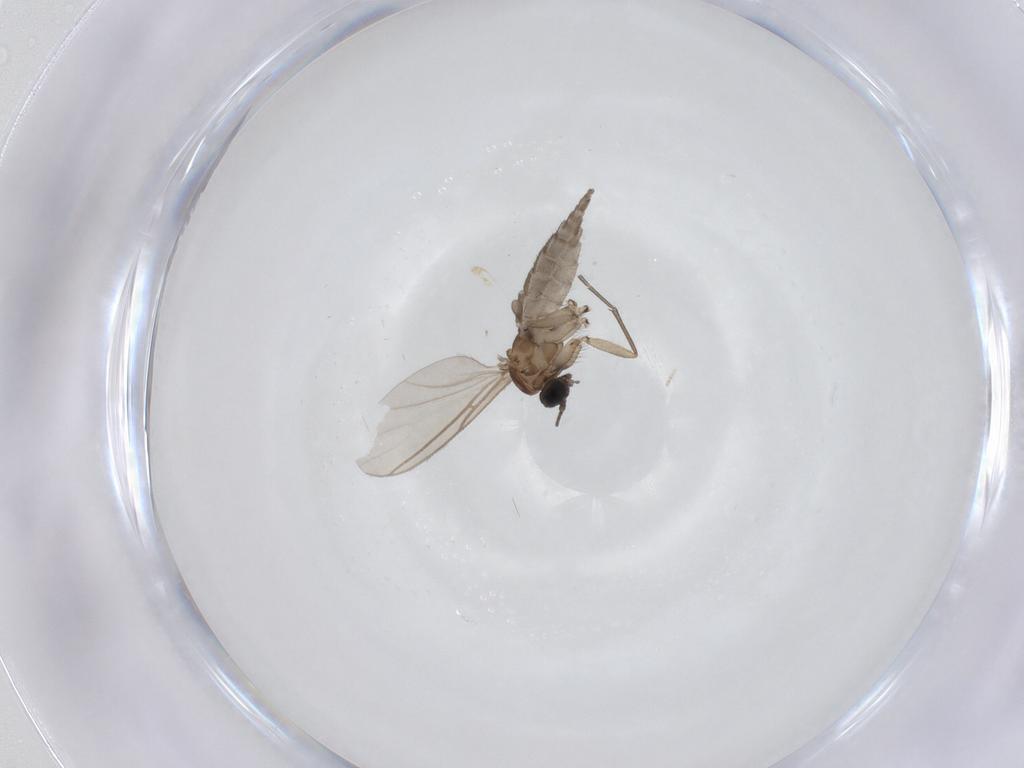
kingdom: Animalia
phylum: Arthropoda
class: Insecta
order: Diptera
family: Sciaridae
